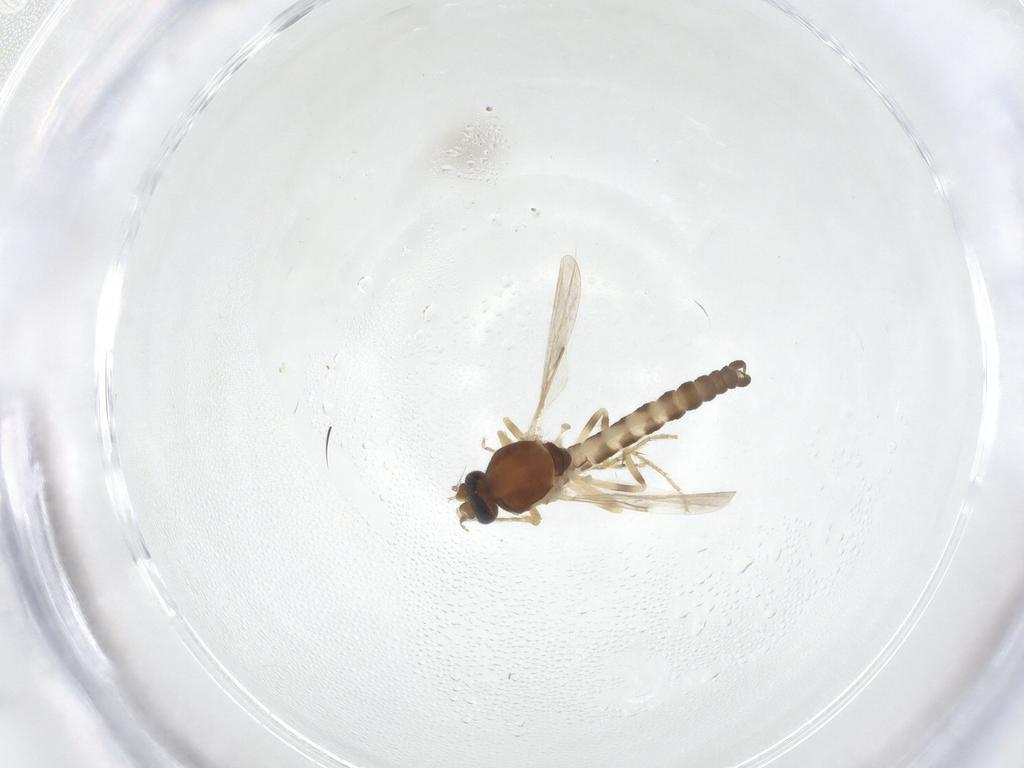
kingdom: Animalia
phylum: Arthropoda
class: Insecta
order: Diptera
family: Ceratopogonidae
